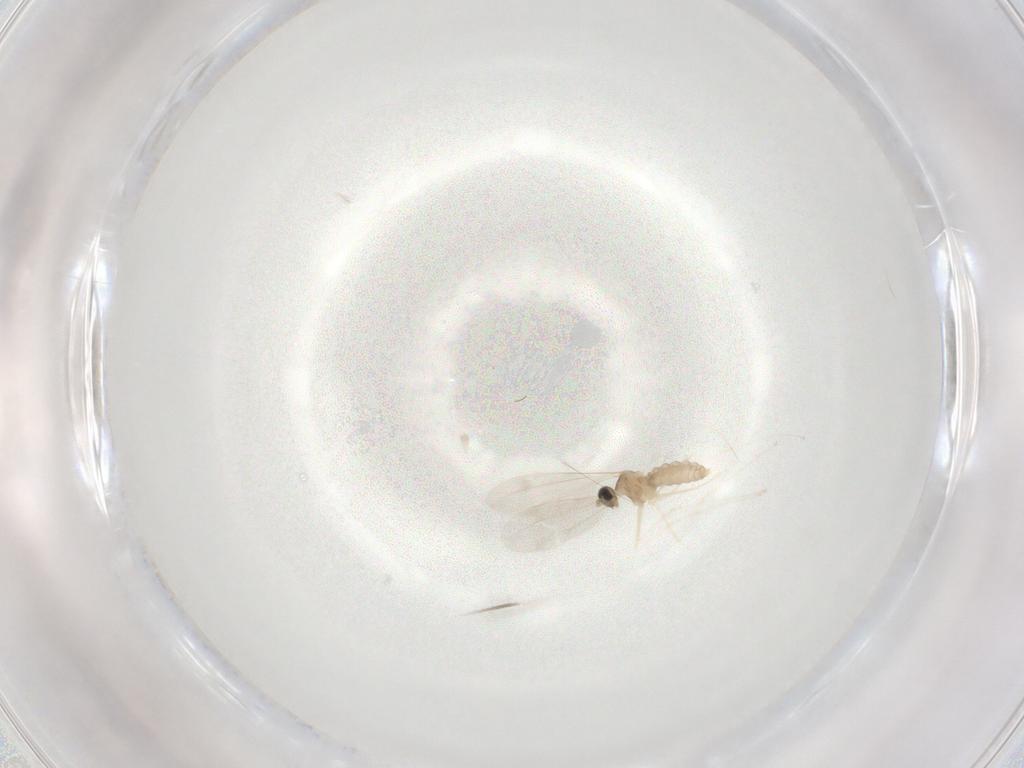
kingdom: Animalia
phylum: Arthropoda
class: Insecta
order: Diptera
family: Cecidomyiidae
